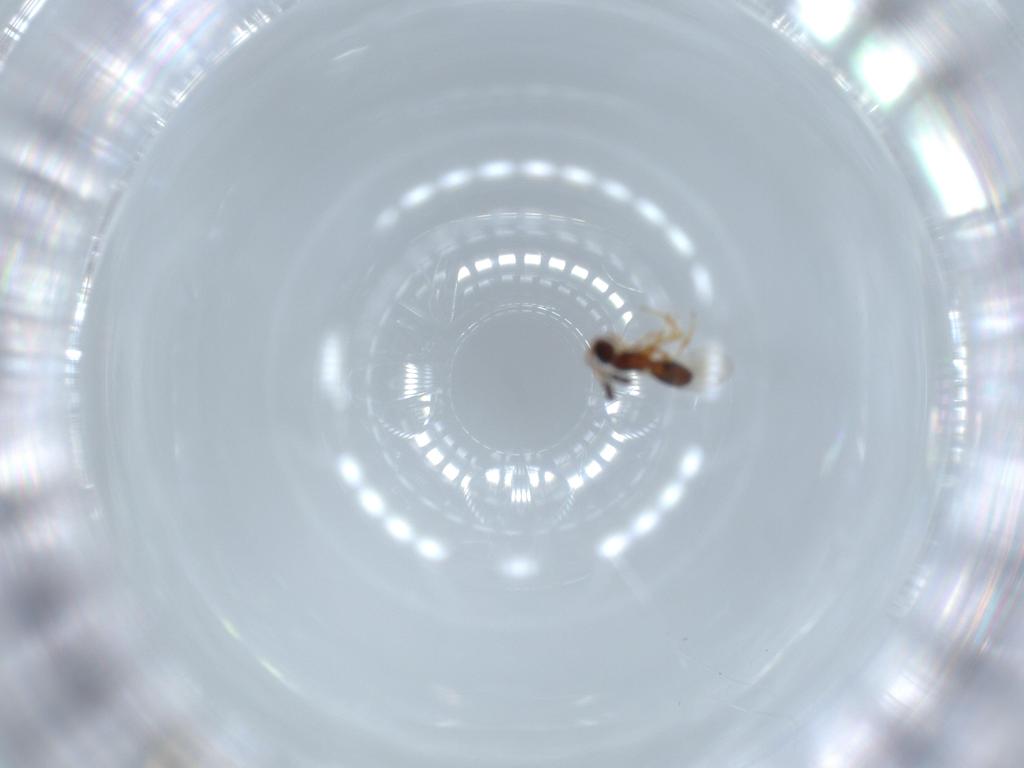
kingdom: Animalia
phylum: Arthropoda
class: Insecta
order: Hymenoptera
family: Diapriidae
